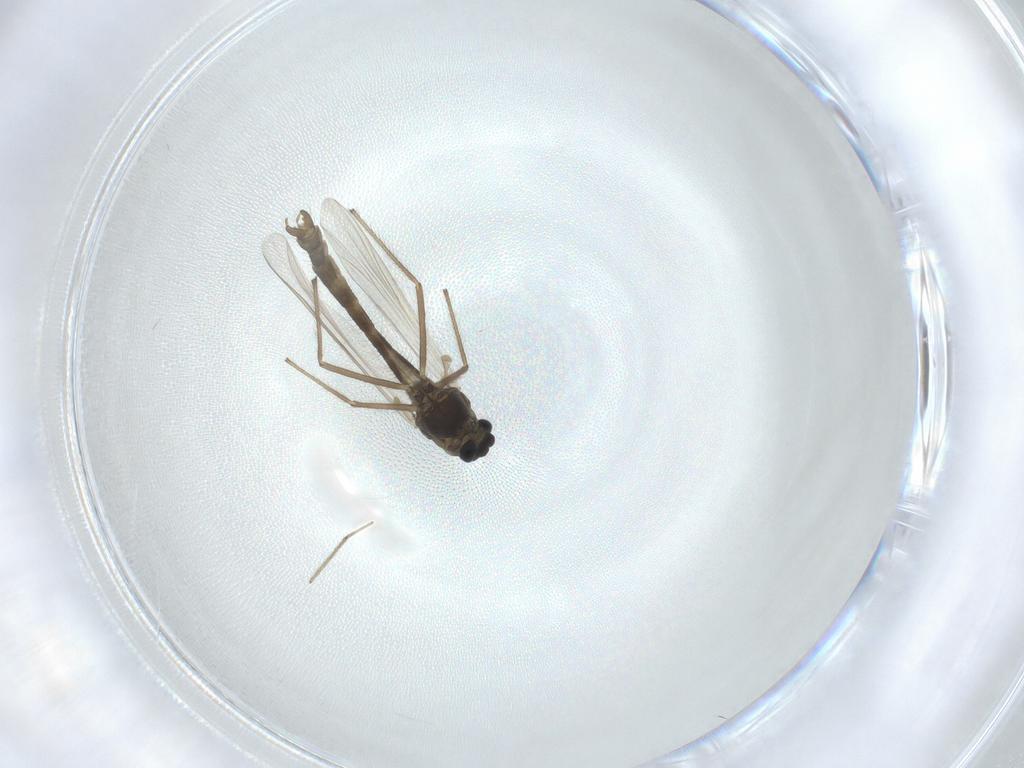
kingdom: Animalia
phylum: Arthropoda
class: Insecta
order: Diptera
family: Chironomidae
